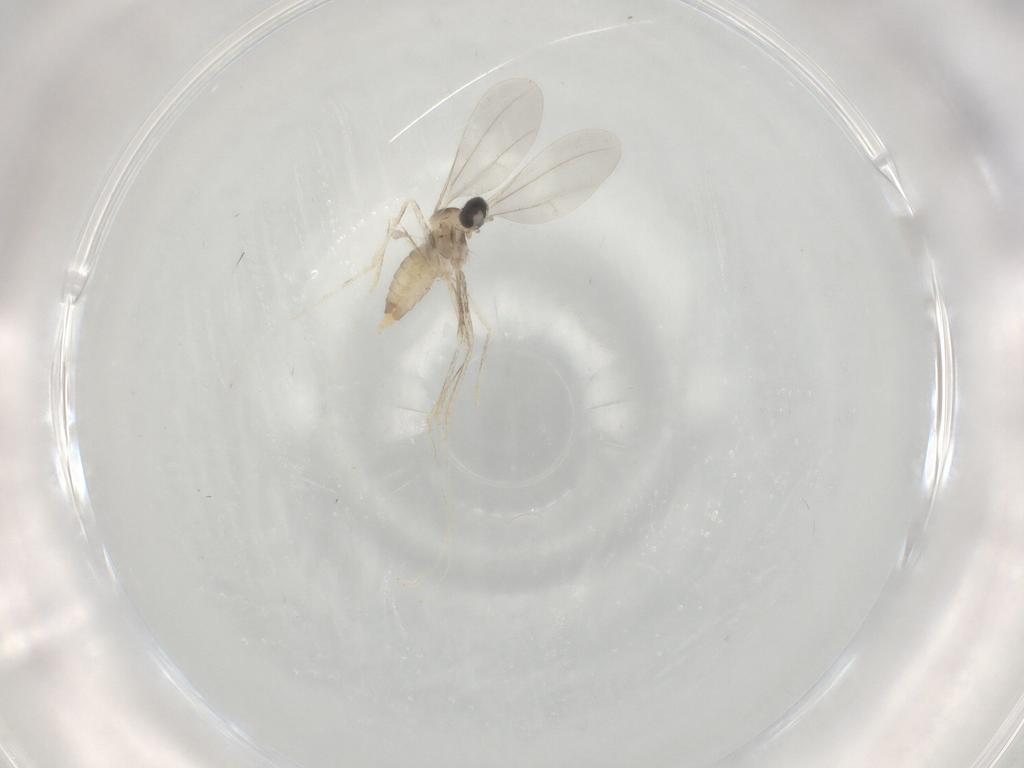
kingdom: Animalia
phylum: Arthropoda
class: Insecta
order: Diptera
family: Cecidomyiidae
